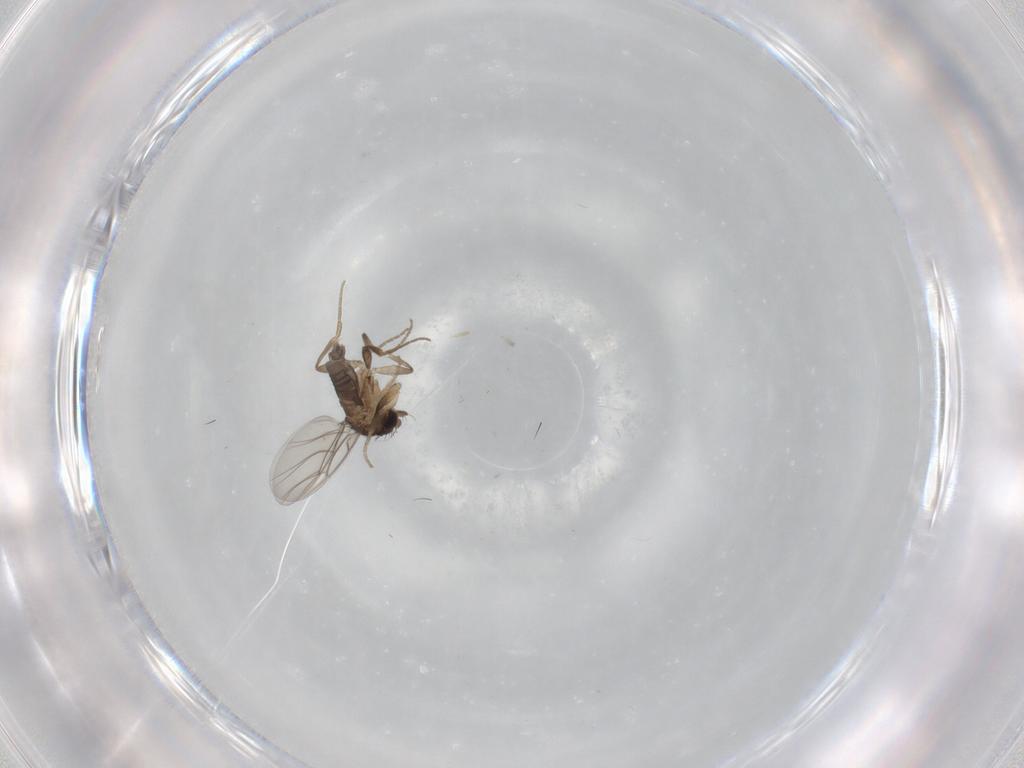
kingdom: Animalia
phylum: Arthropoda
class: Insecta
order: Diptera
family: Chironomidae
